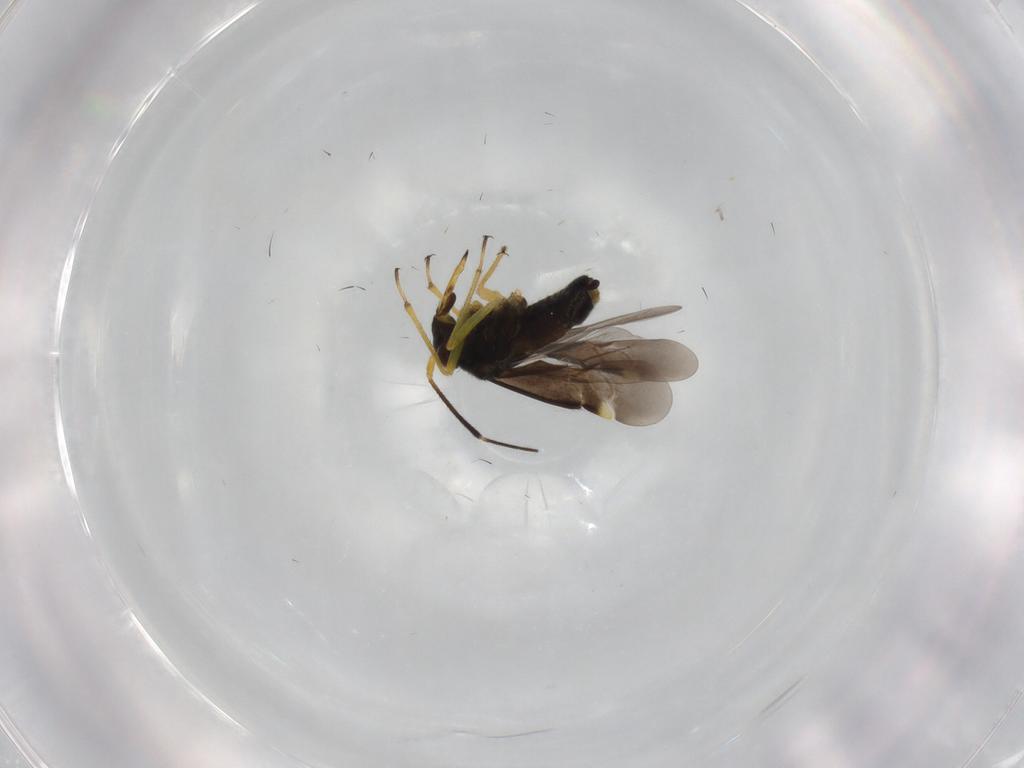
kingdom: Animalia
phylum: Arthropoda
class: Insecta
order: Hemiptera
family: Miridae
